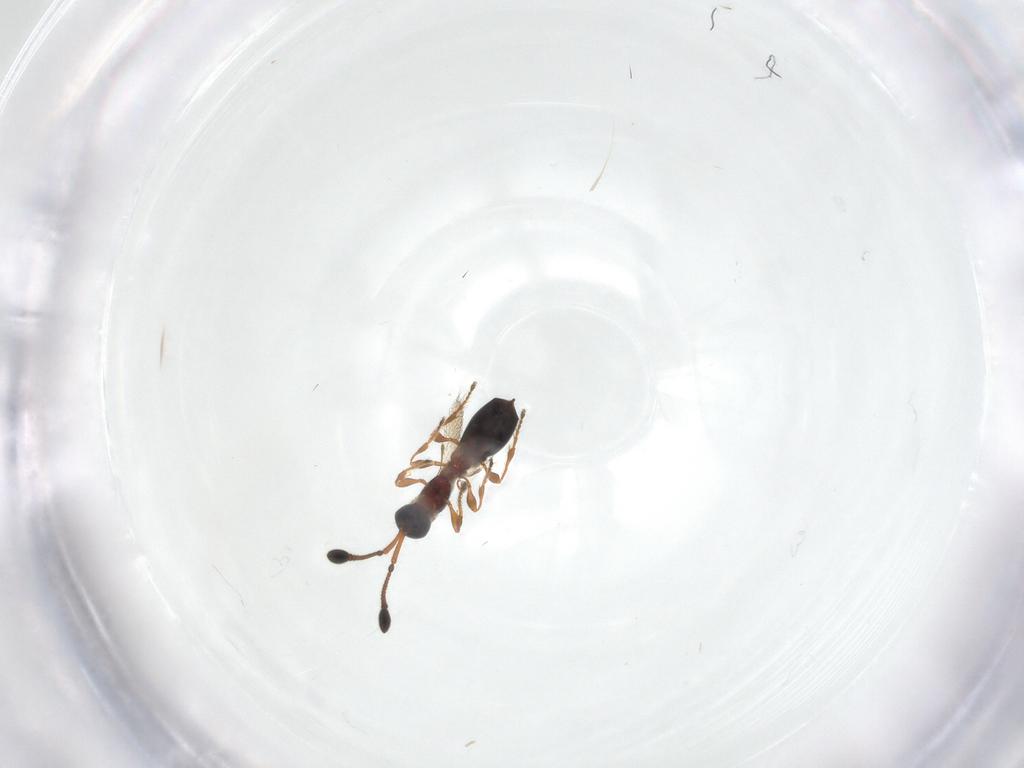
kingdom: Animalia
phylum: Arthropoda
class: Insecta
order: Hymenoptera
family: Diapriidae
